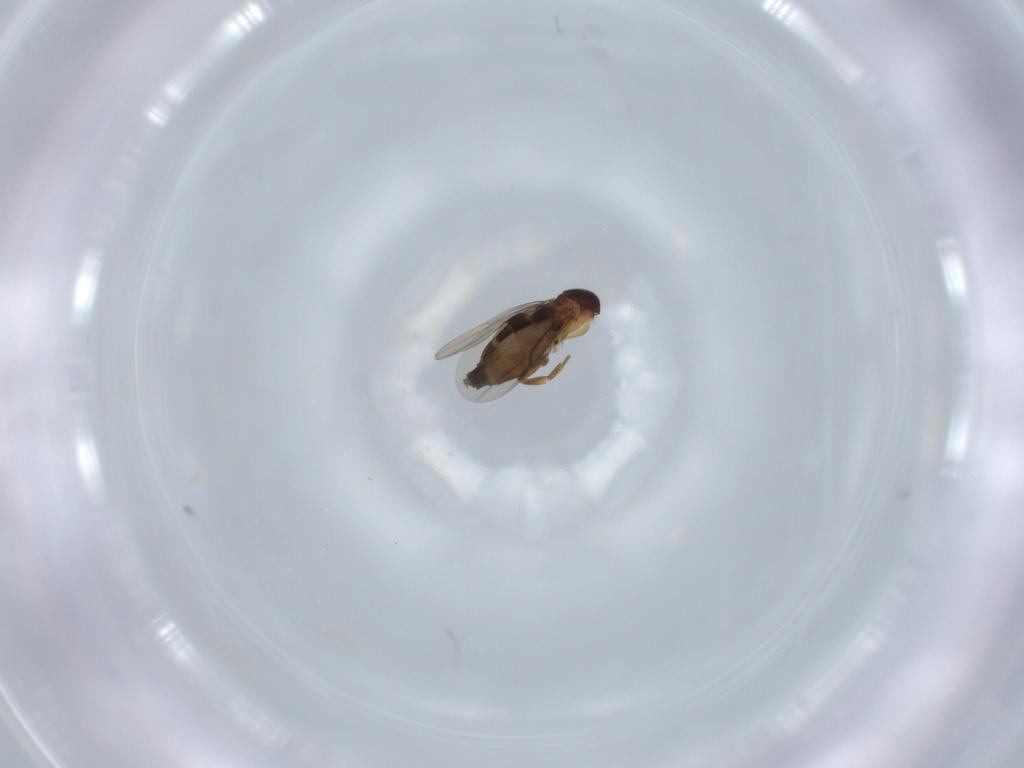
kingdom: Animalia
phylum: Arthropoda
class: Insecta
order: Diptera
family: Phoridae
